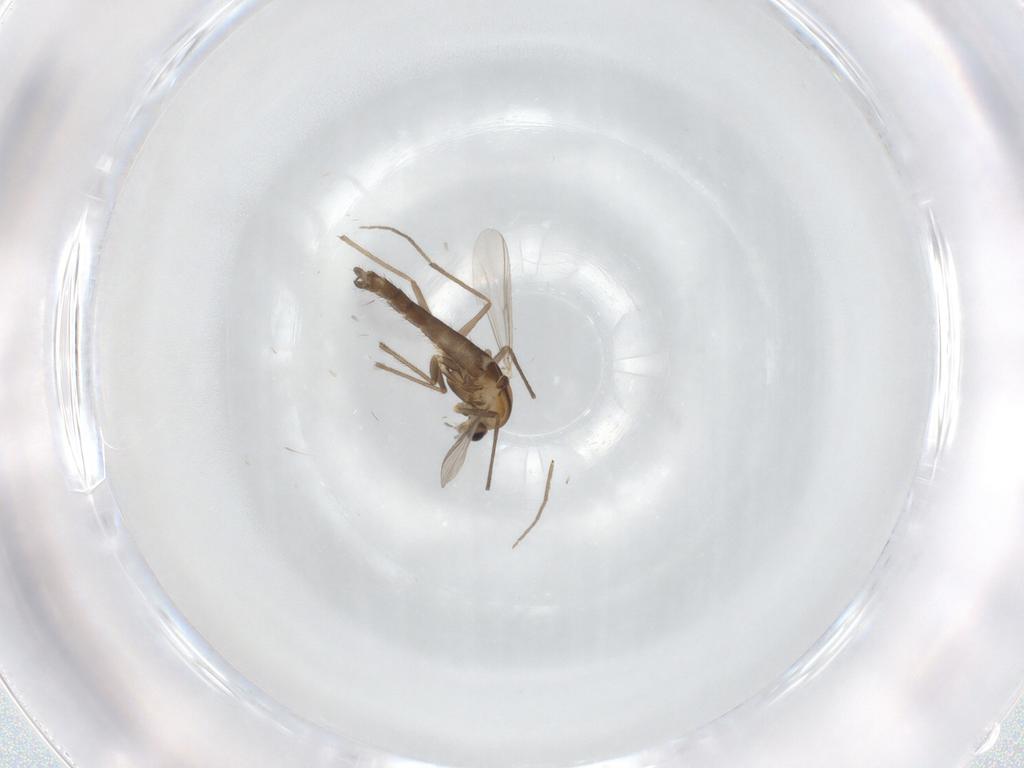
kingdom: Animalia
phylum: Arthropoda
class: Insecta
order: Diptera
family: Chironomidae
